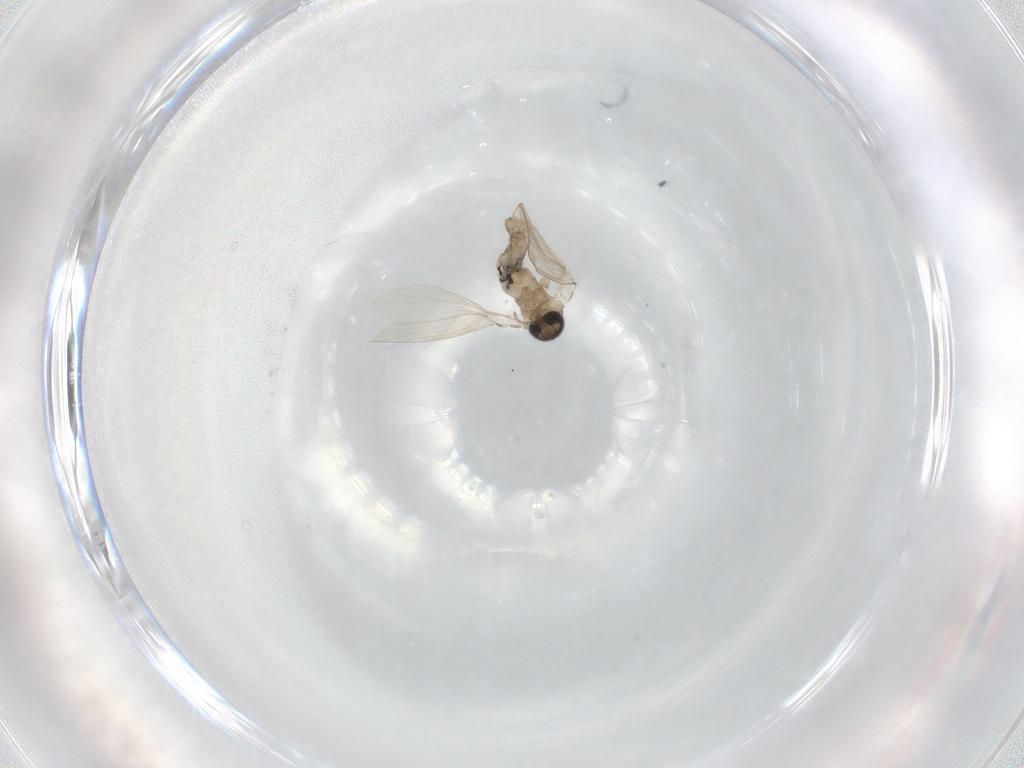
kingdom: Animalia
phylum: Arthropoda
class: Insecta
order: Diptera
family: Psychodidae
